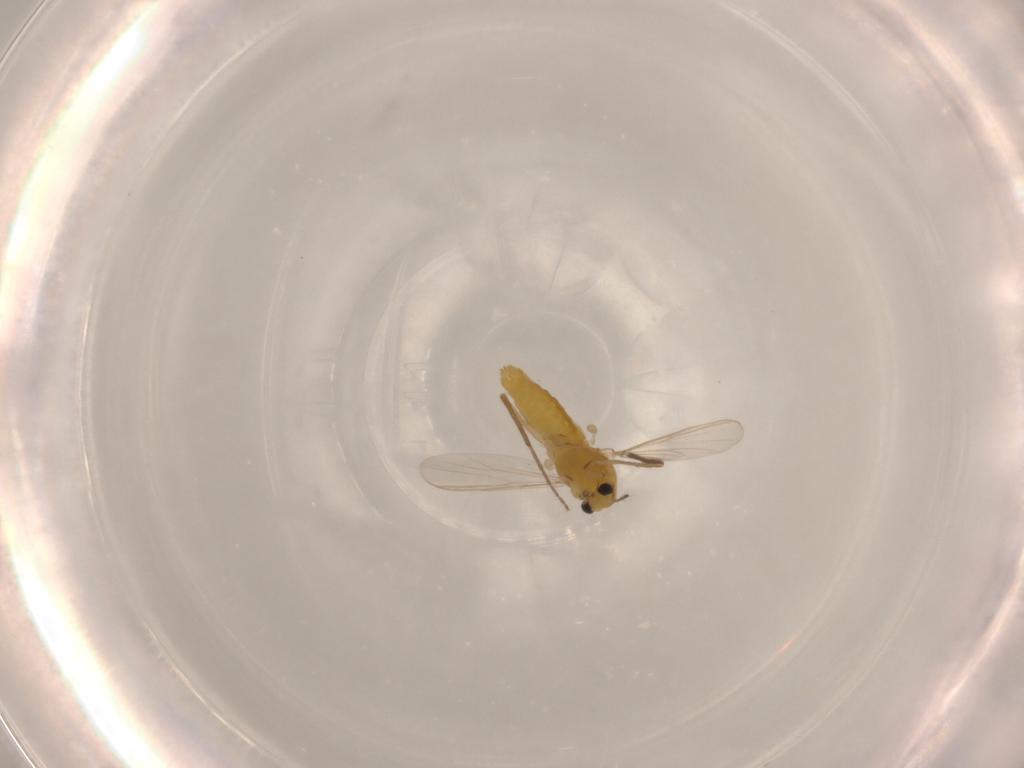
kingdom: Animalia
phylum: Arthropoda
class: Insecta
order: Diptera
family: Chironomidae
